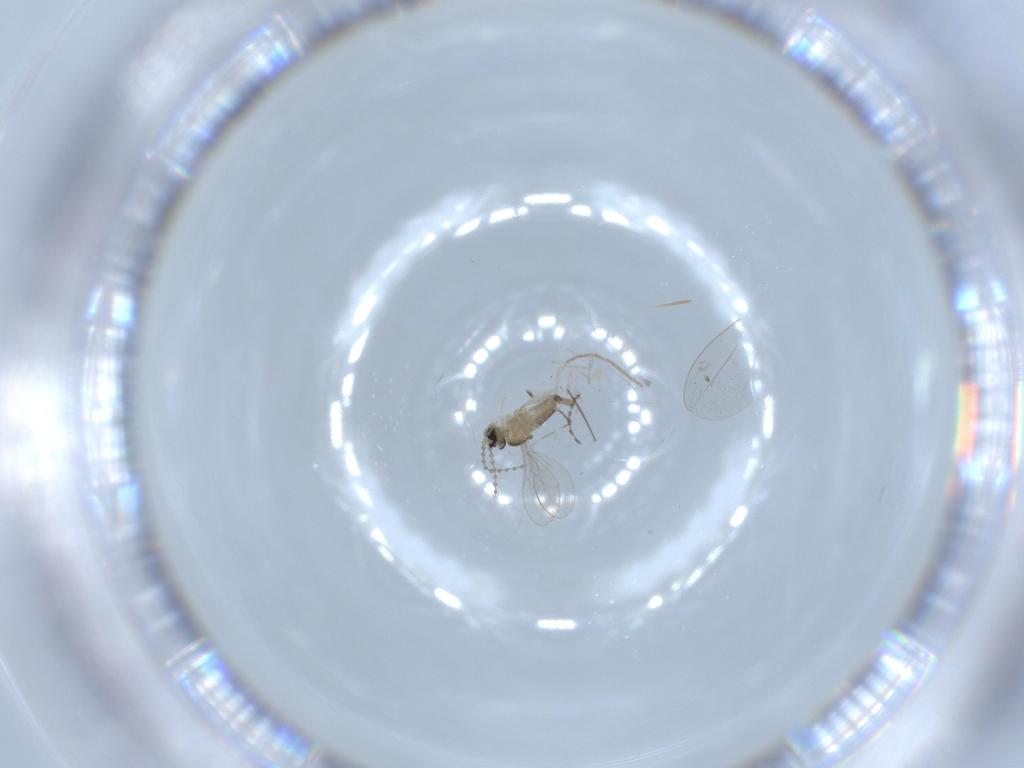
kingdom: Animalia
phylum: Arthropoda
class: Insecta
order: Diptera
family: Cecidomyiidae
